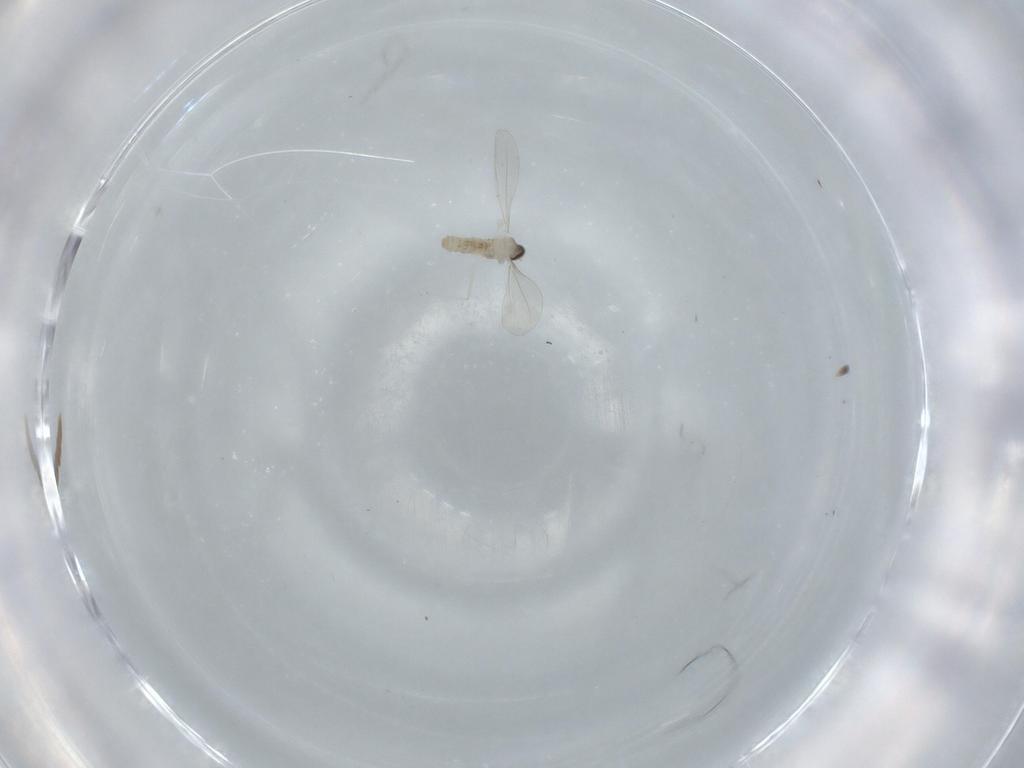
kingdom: Animalia
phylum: Arthropoda
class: Insecta
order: Diptera
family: Cecidomyiidae
